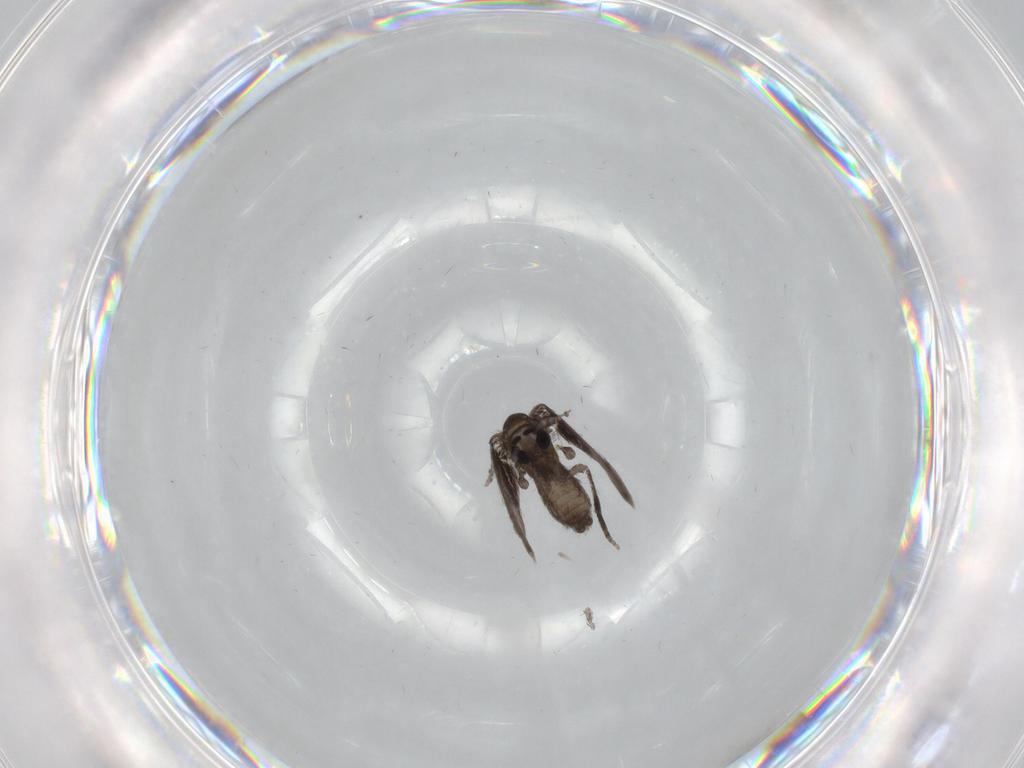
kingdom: Animalia
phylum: Arthropoda
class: Insecta
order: Diptera
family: Psychodidae
